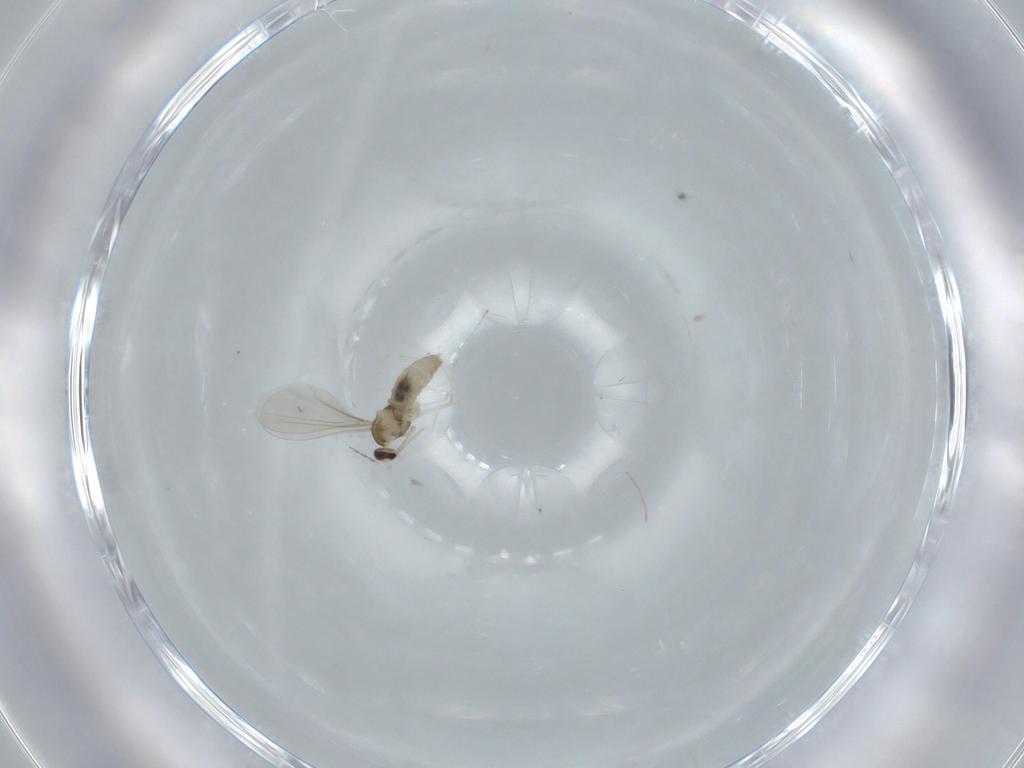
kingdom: Animalia
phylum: Arthropoda
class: Insecta
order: Diptera
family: Cecidomyiidae
